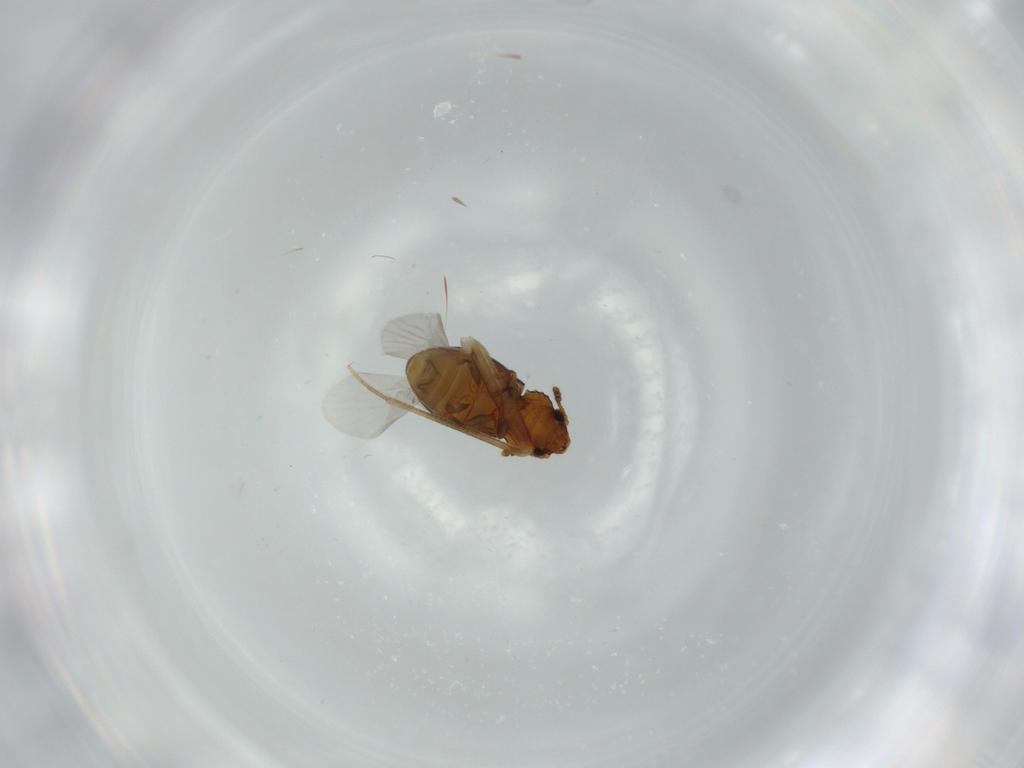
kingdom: Animalia
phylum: Arthropoda
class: Insecta
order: Coleoptera
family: Salpingidae
